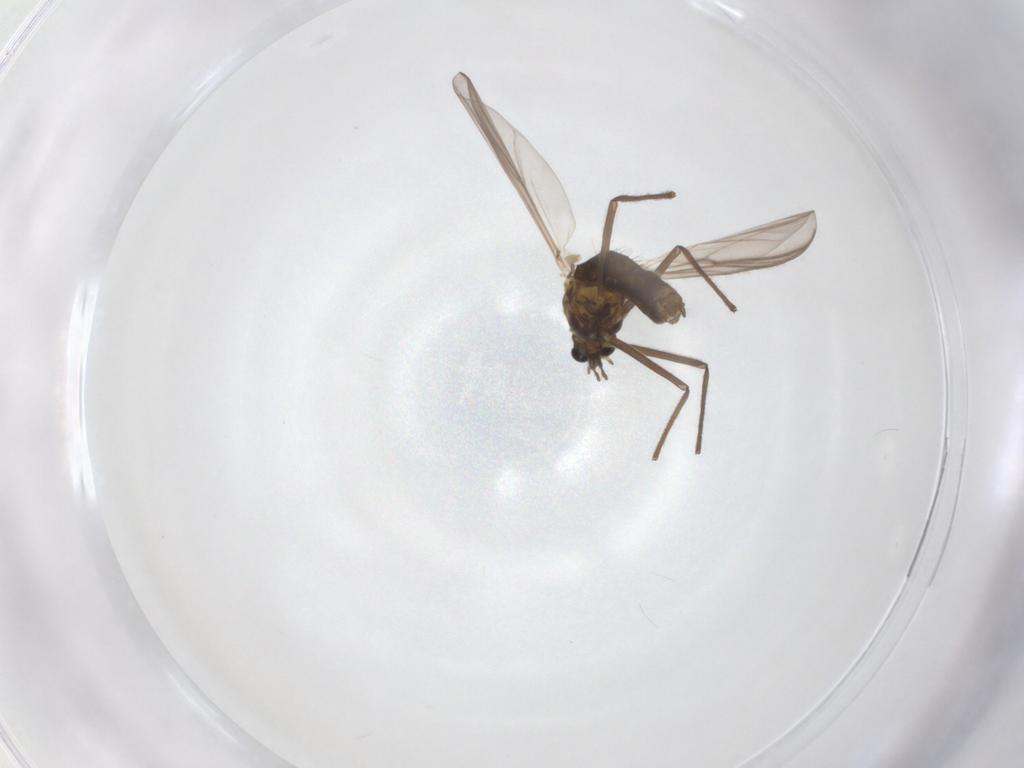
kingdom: Animalia
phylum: Arthropoda
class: Insecta
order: Diptera
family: Chironomidae
